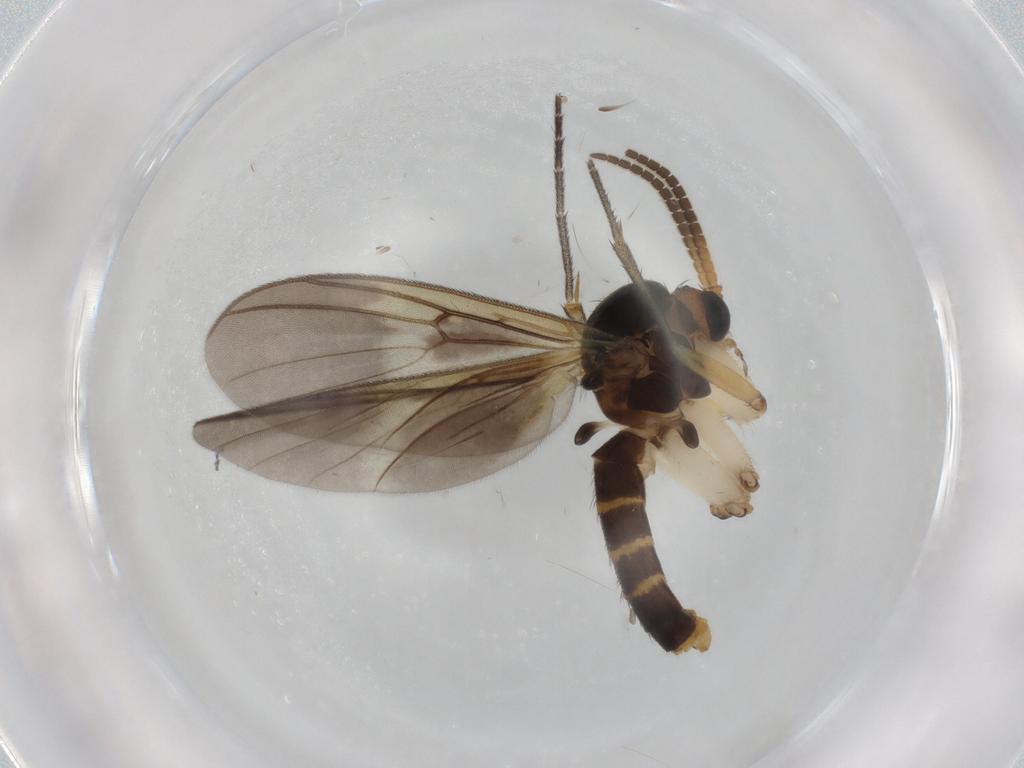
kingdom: Animalia
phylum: Arthropoda
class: Insecta
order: Diptera
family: Mycetophilidae
